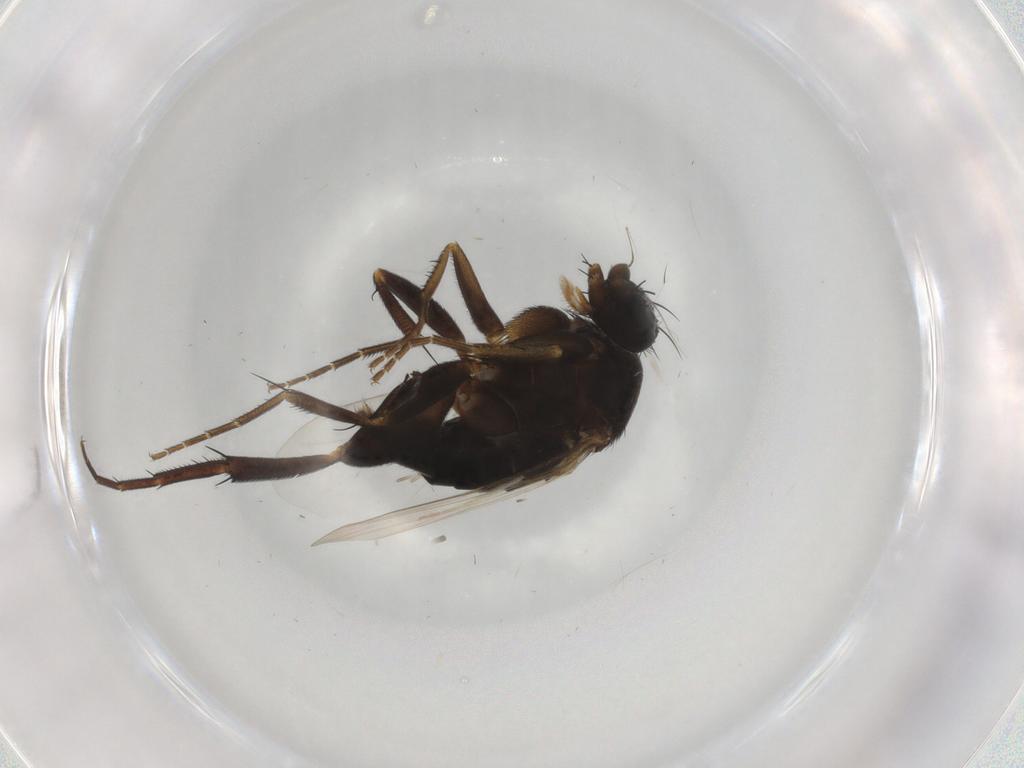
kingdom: Animalia
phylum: Arthropoda
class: Insecta
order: Diptera
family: Phoridae
